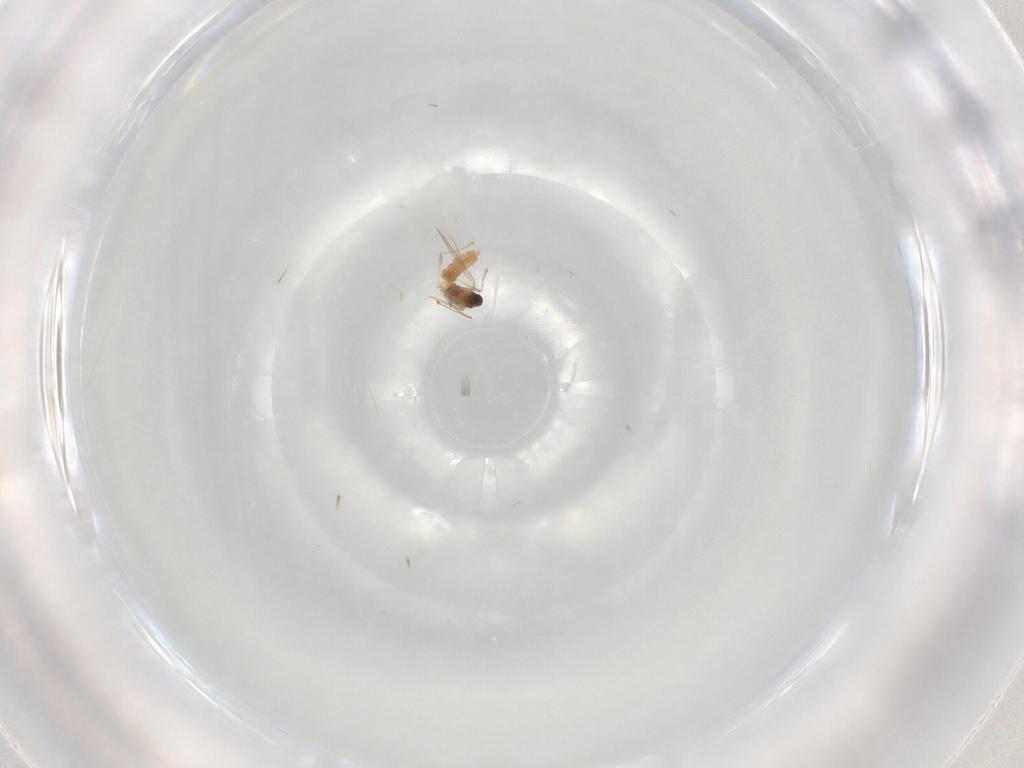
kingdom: Animalia
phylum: Arthropoda
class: Insecta
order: Diptera
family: Cecidomyiidae
